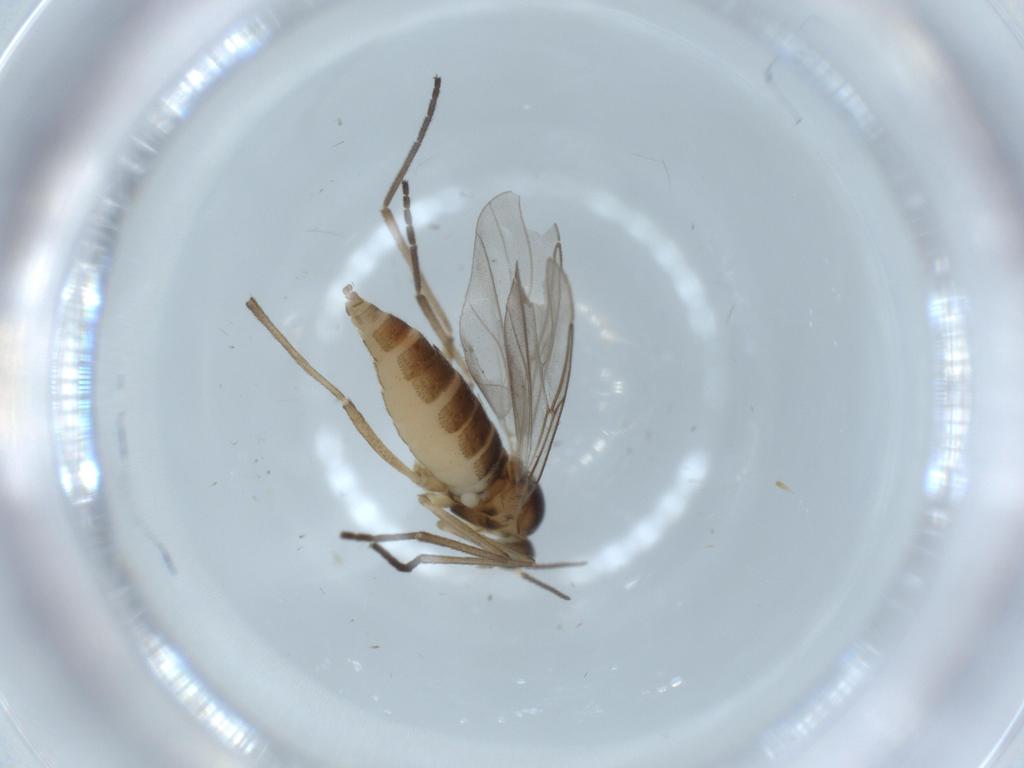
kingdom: Animalia
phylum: Arthropoda
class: Insecta
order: Diptera
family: Cecidomyiidae
